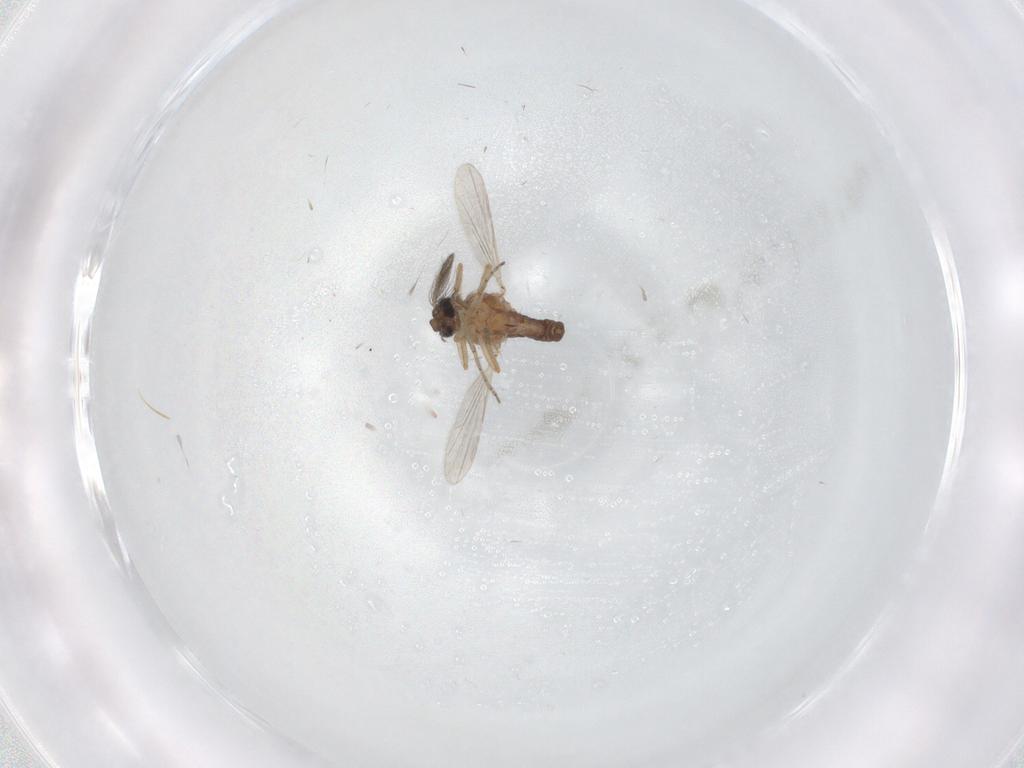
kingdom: Animalia
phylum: Arthropoda
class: Insecta
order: Diptera
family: Ceratopogonidae
